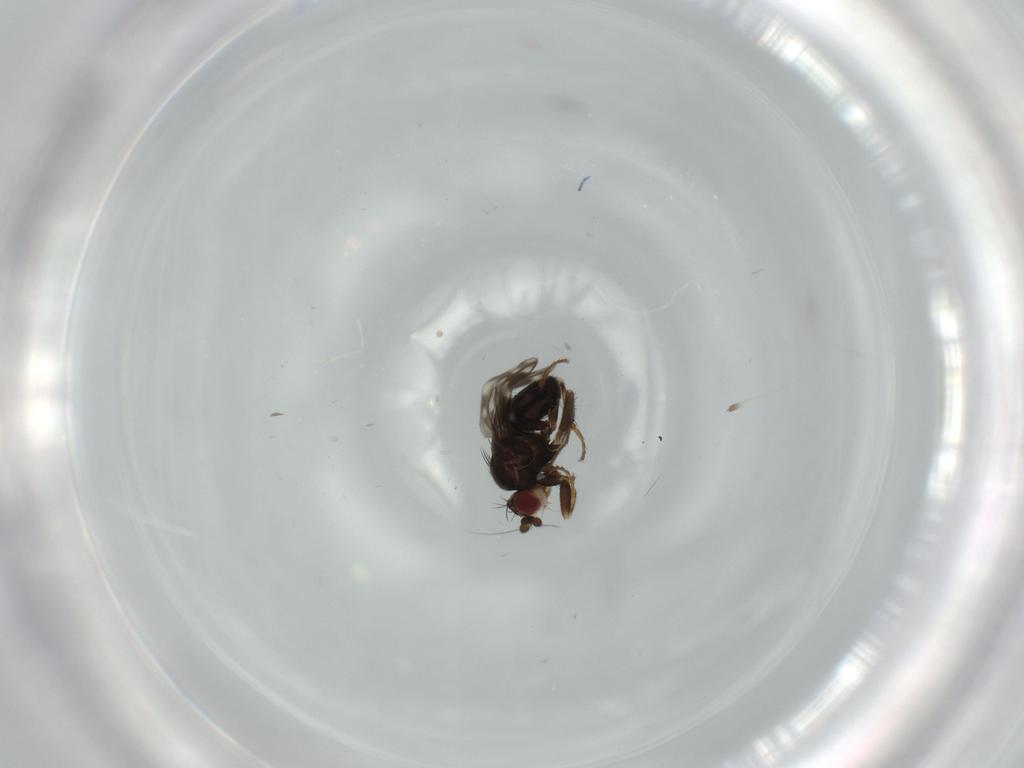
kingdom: Animalia
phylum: Arthropoda
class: Insecta
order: Diptera
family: Sphaeroceridae
